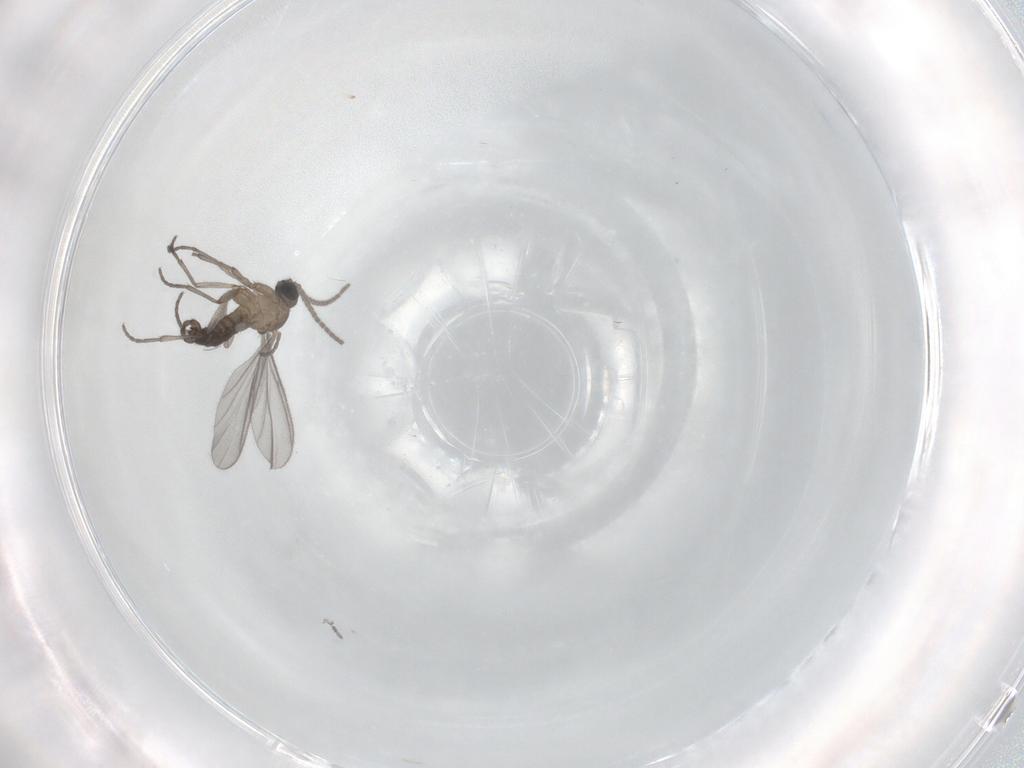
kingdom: Animalia
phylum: Arthropoda
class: Insecta
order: Diptera
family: Sciaridae
